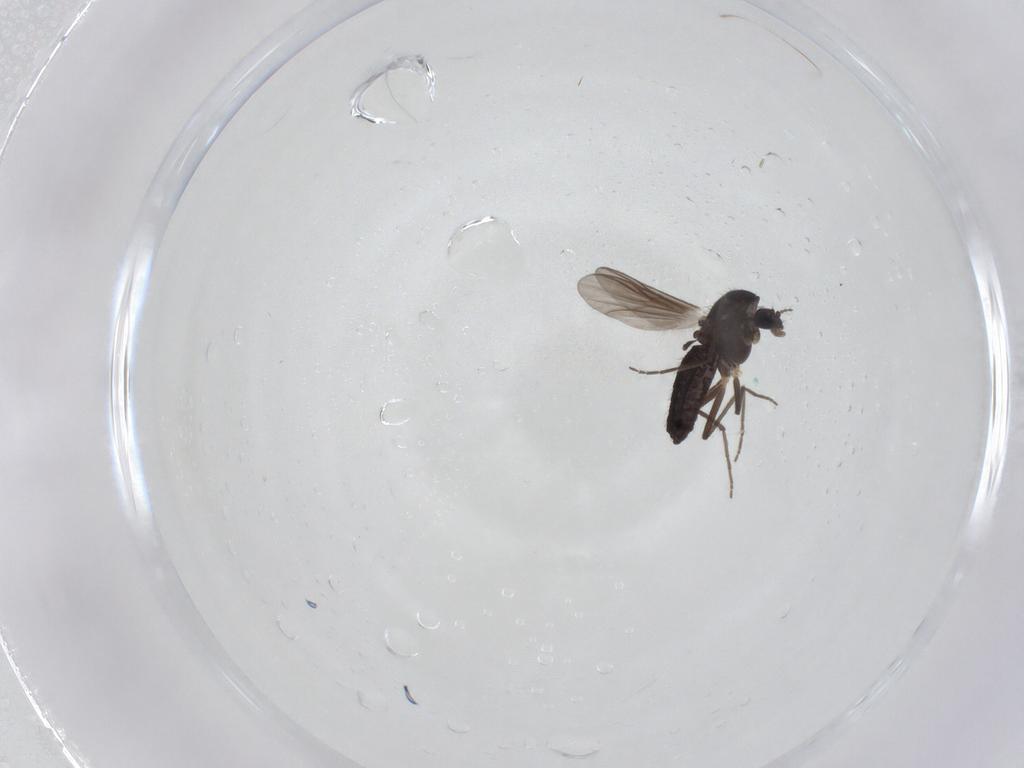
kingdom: Animalia
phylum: Arthropoda
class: Insecta
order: Diptera
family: Chironomidae
